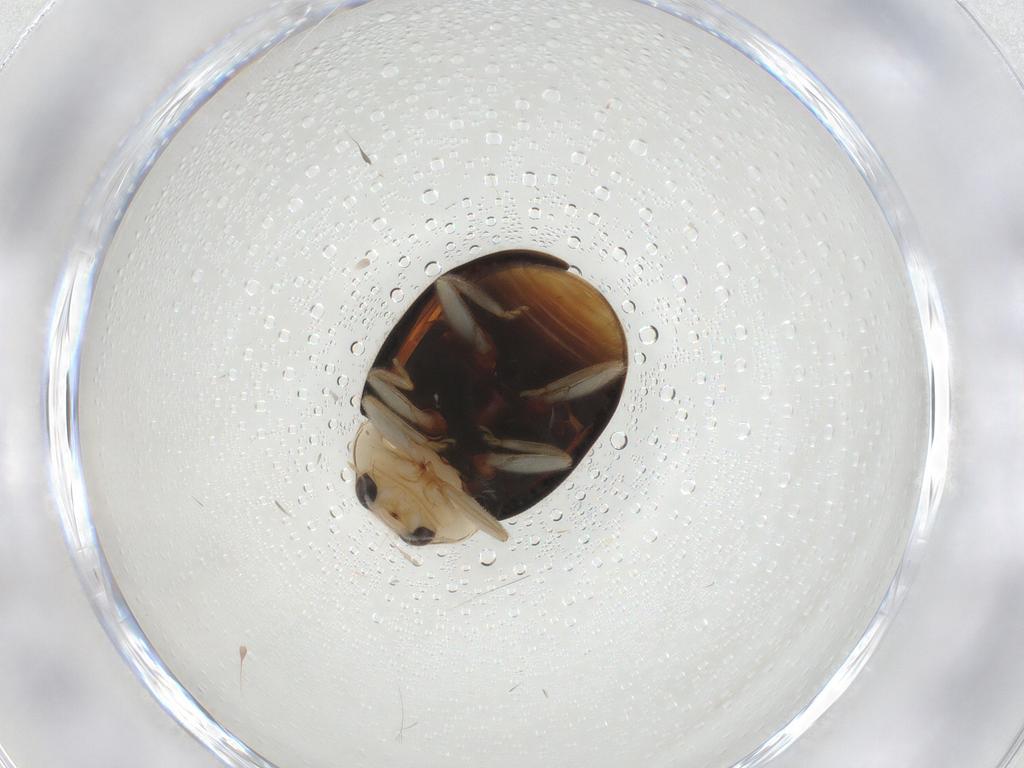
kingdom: Animalia
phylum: Arthropoda
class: Insecta
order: Coleoptera
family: Coccinellidae
